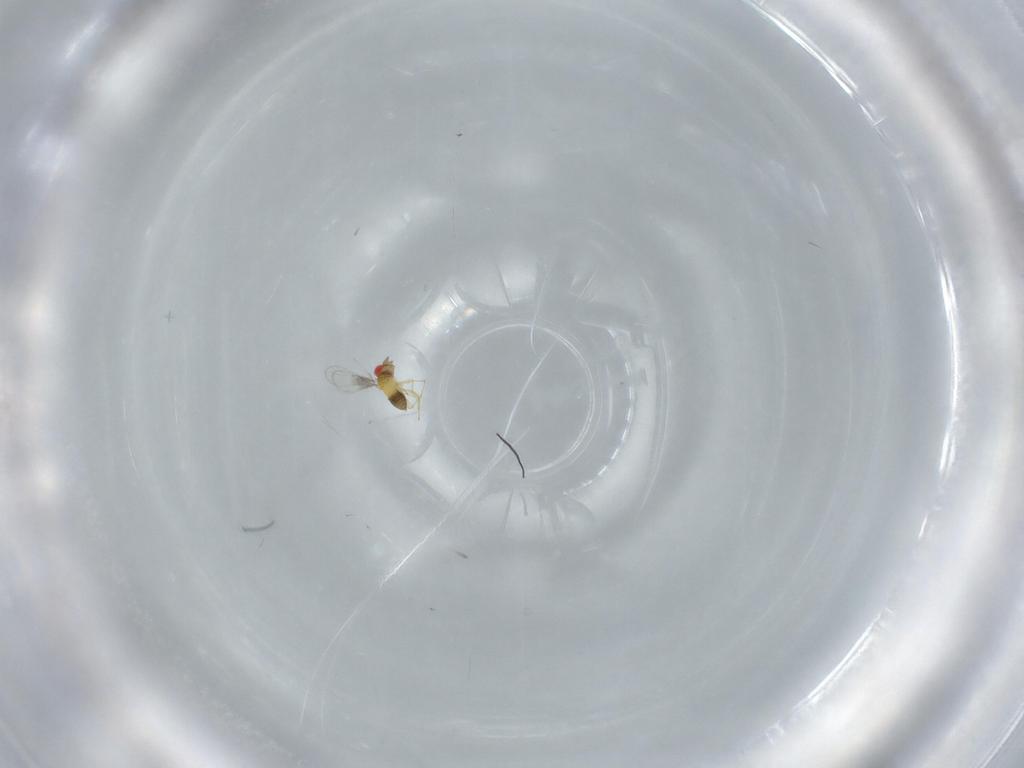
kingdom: Animalia
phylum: Arthropoda
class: Insecta
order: Hymenoptera
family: Trichogrammatidae
